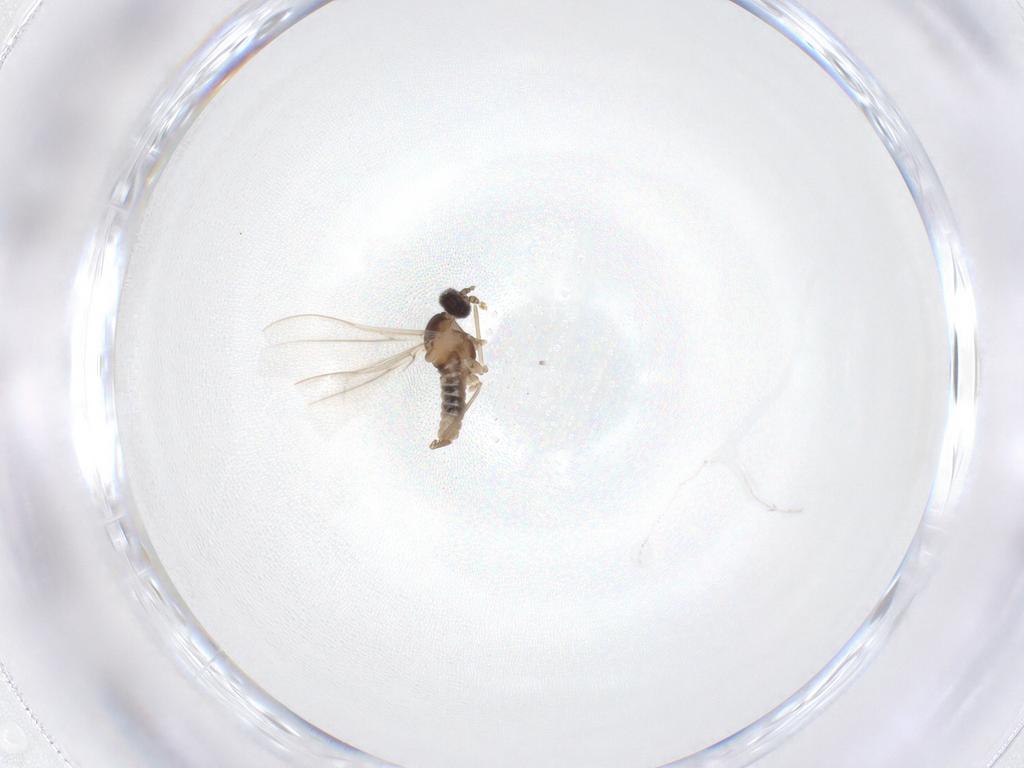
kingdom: Animalia
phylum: Arthropoda
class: Insecta
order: Diptera
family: Cecidomyiidae
